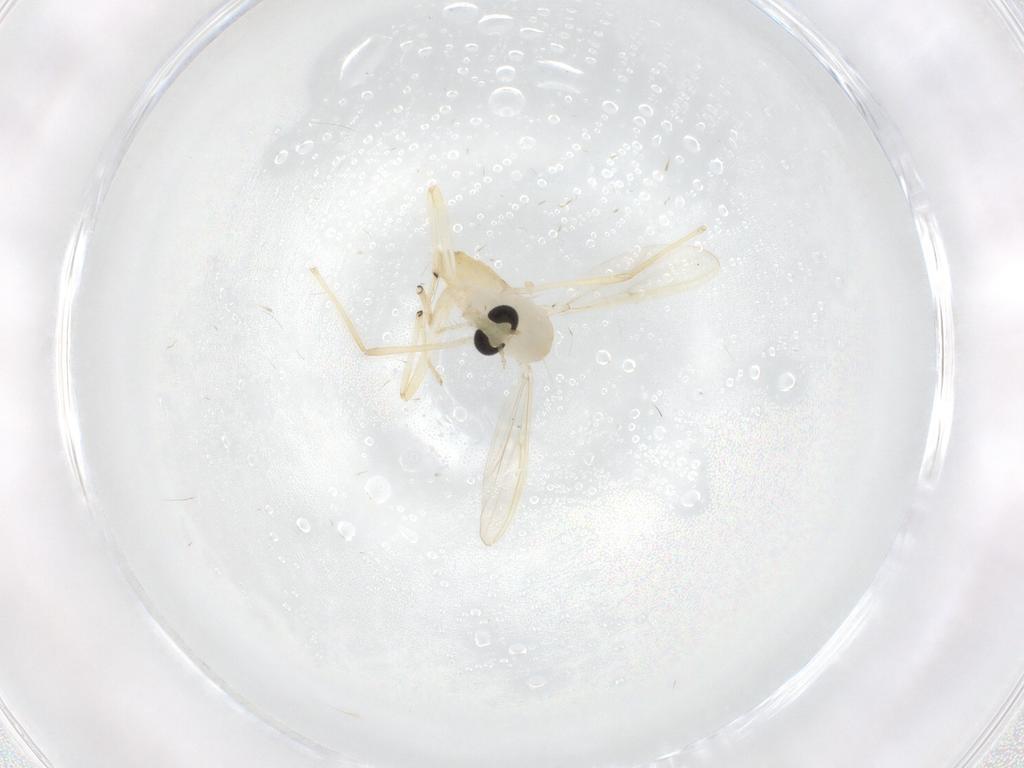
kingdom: Animalia
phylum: Arthropoda
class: Insecta
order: Diptera
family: Chironomidae
